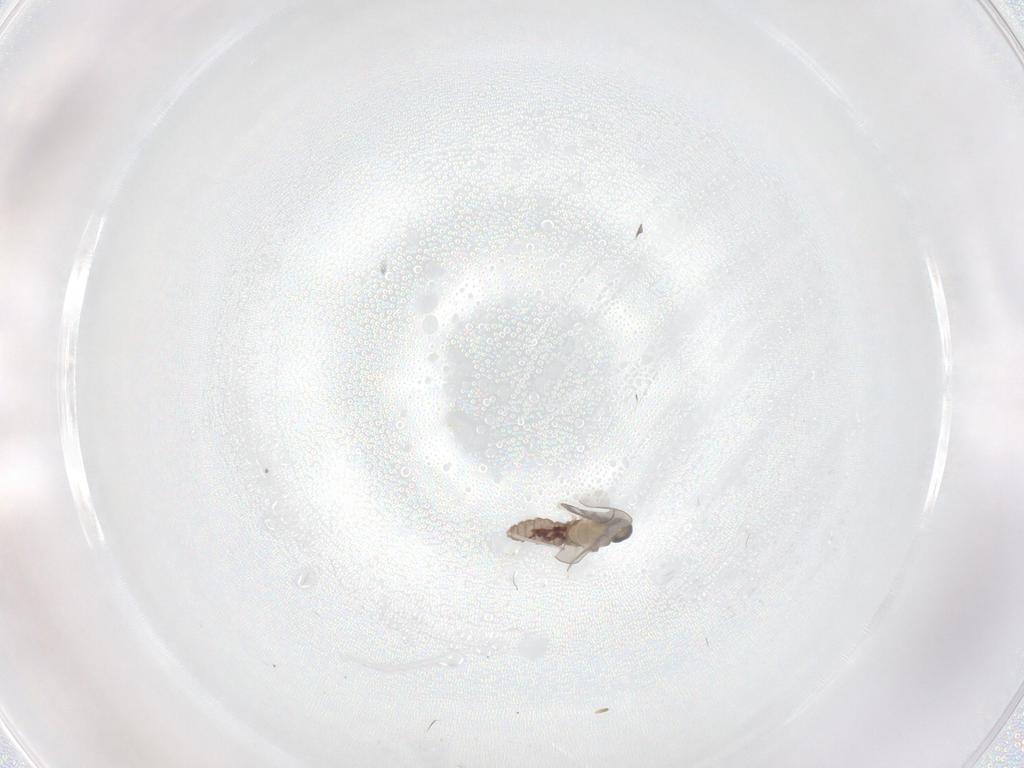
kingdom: Animalia
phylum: Arthropoda
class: Insecta
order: Diptera
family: Cecidomyiidae
